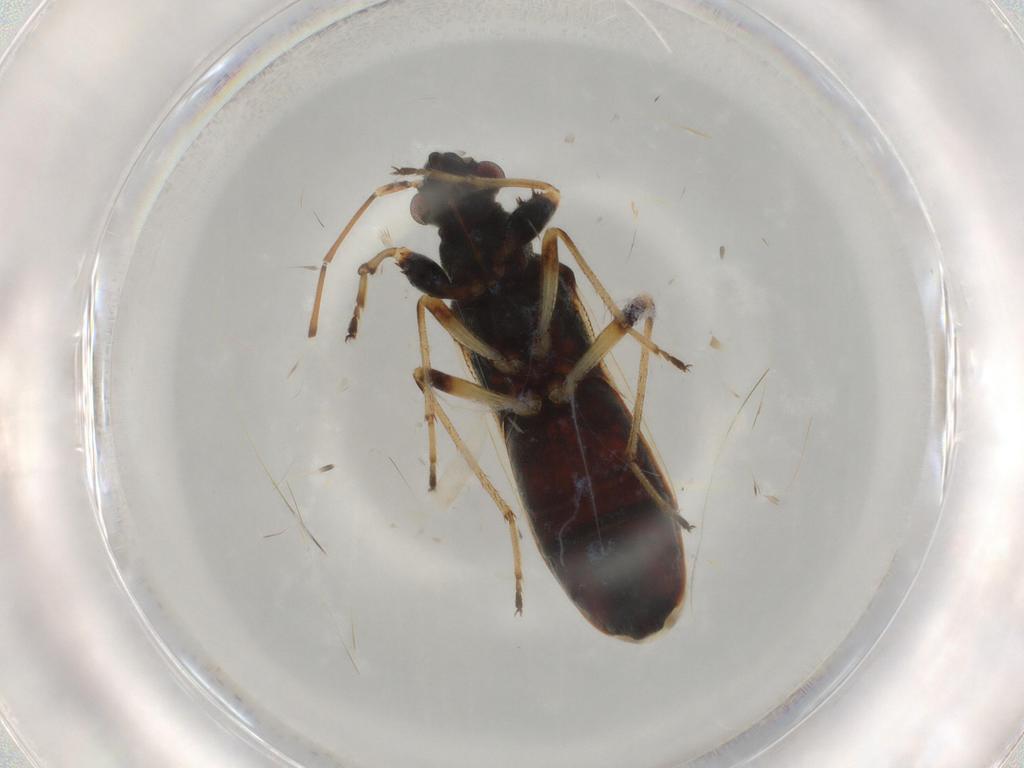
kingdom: Animalia
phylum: Arthropoda
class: Insecta
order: Hemiptera
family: Rhyparochromidae
